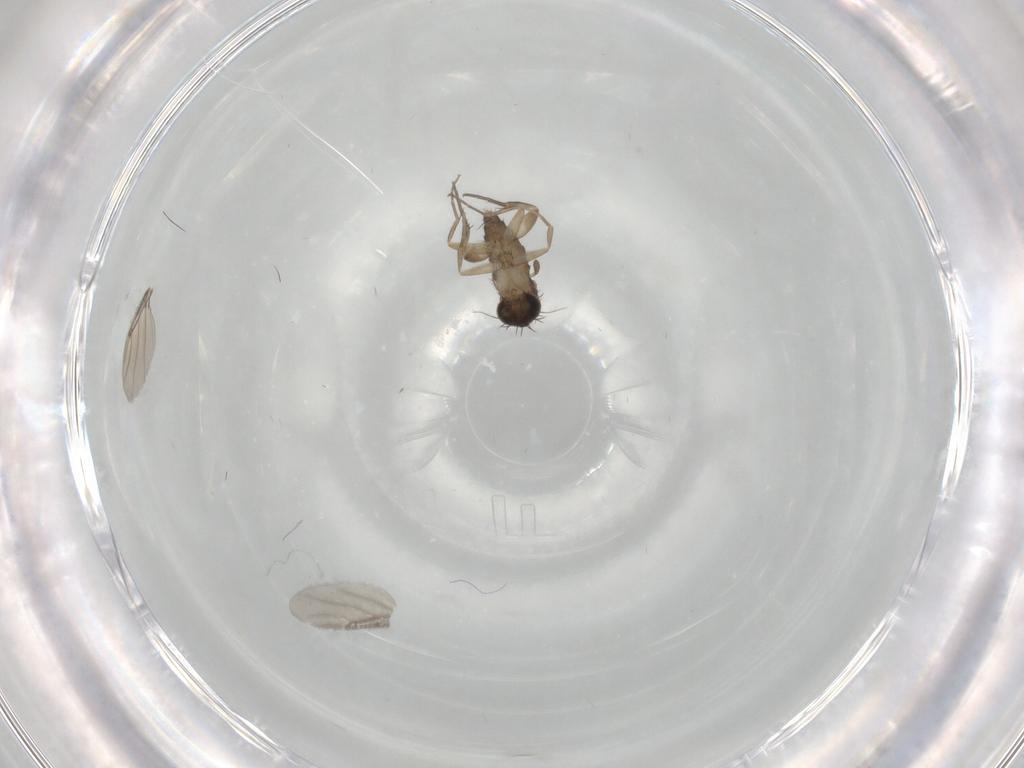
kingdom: Animalia
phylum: Arthropoda
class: Insecta
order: Diptera
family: Phoridae
